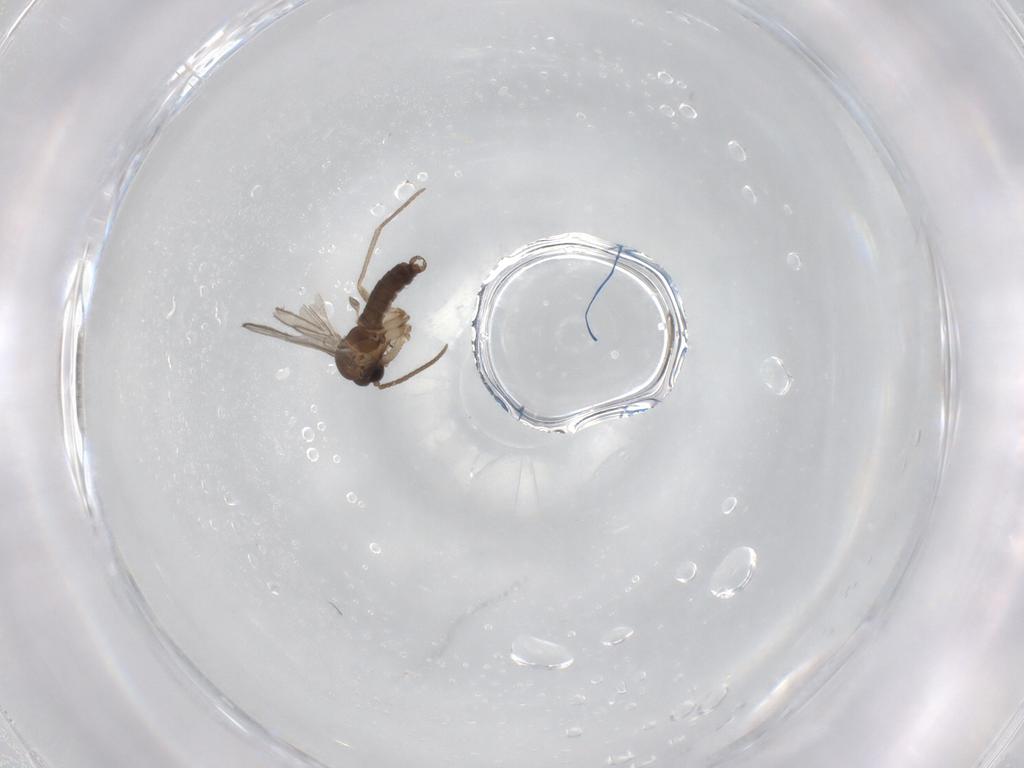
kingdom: Animalia
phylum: Arthropoda
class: Insecta
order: Diptera
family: Sciaridae
